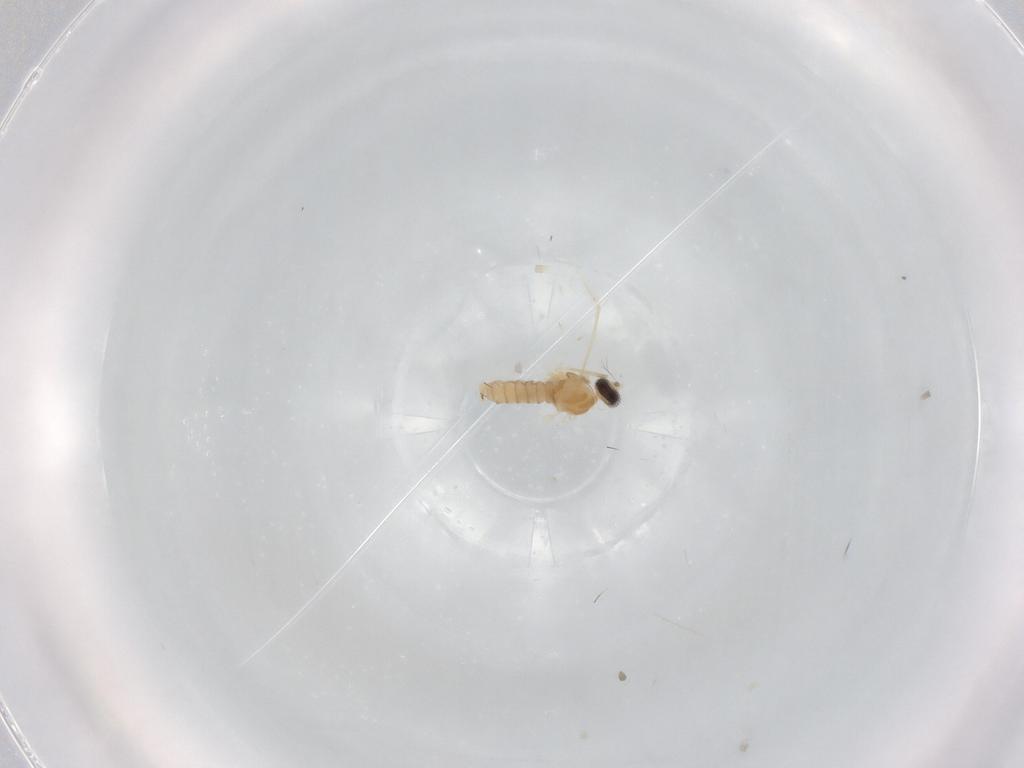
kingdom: Animalia
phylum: Arthropoda
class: Insecta
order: Diptera
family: Cecidomyiidae
